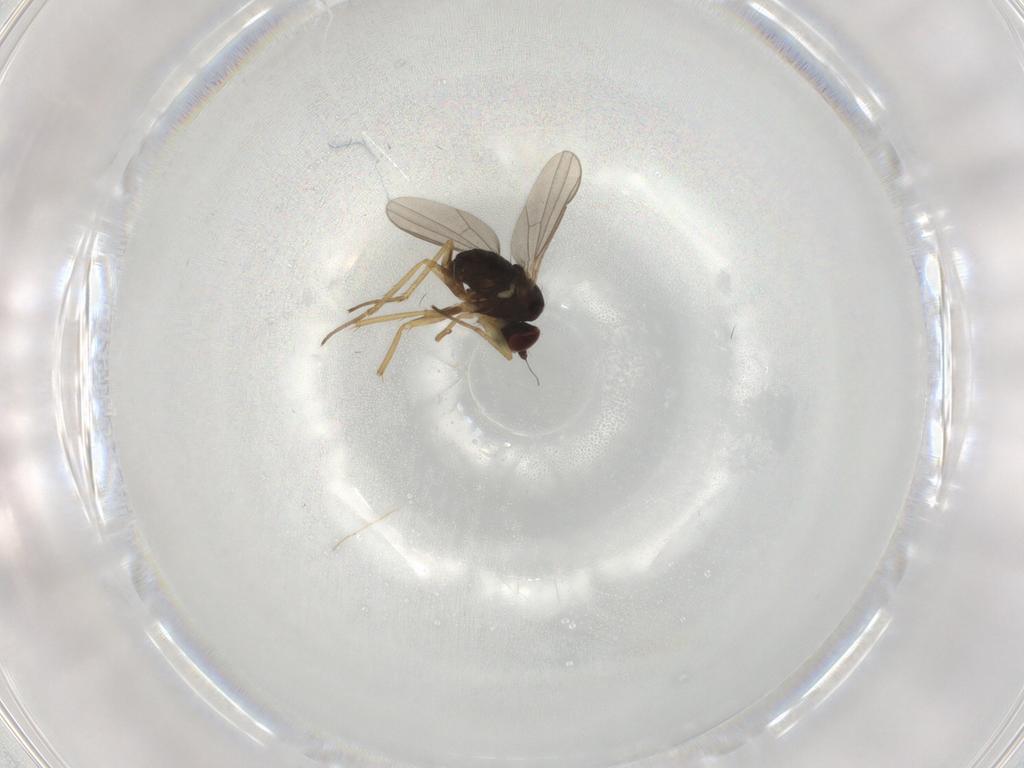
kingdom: Animalia
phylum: Arthropoda
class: Insecta
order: Diptera
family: Dolichopodidae
